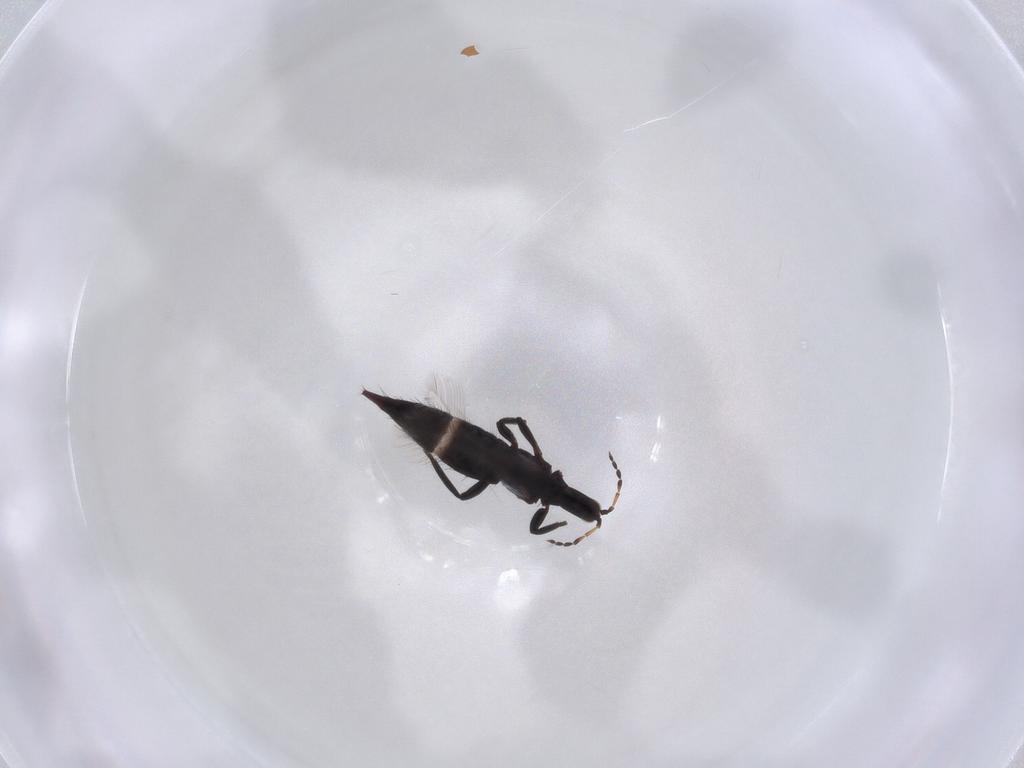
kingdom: Animalia
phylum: Arthropoda
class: Insecta
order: Thysanoptera
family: Phlaeothripidae
